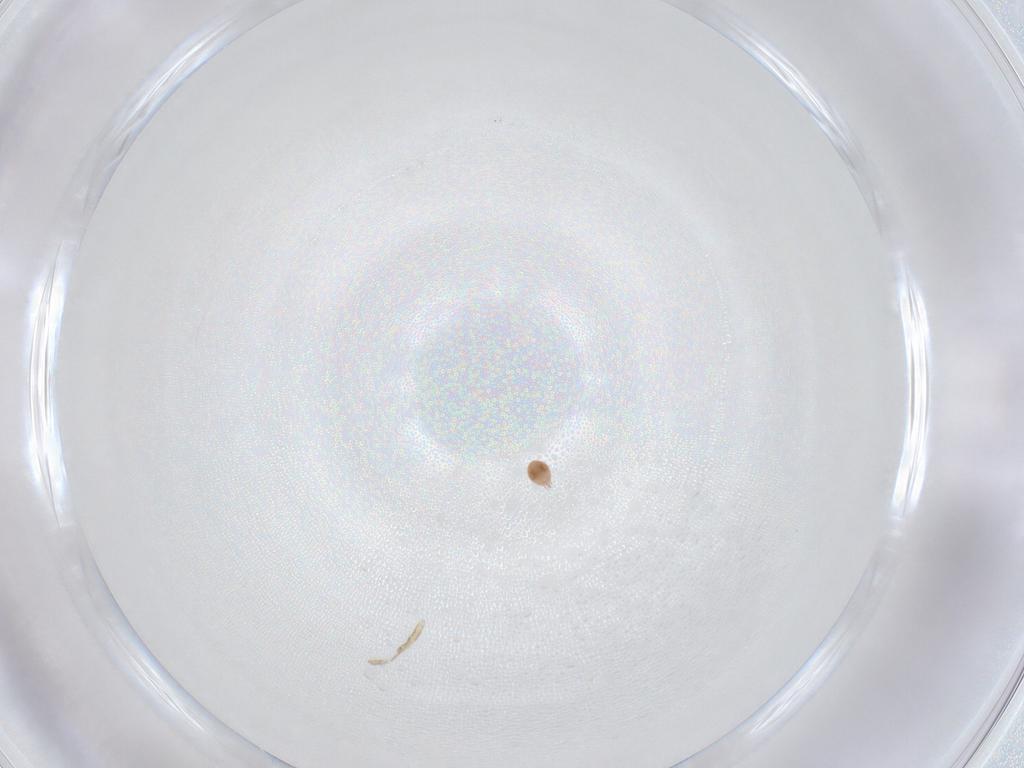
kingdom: Animalia
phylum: Arthropoda
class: Insecta
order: Diptera
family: Ceratopogonidae
